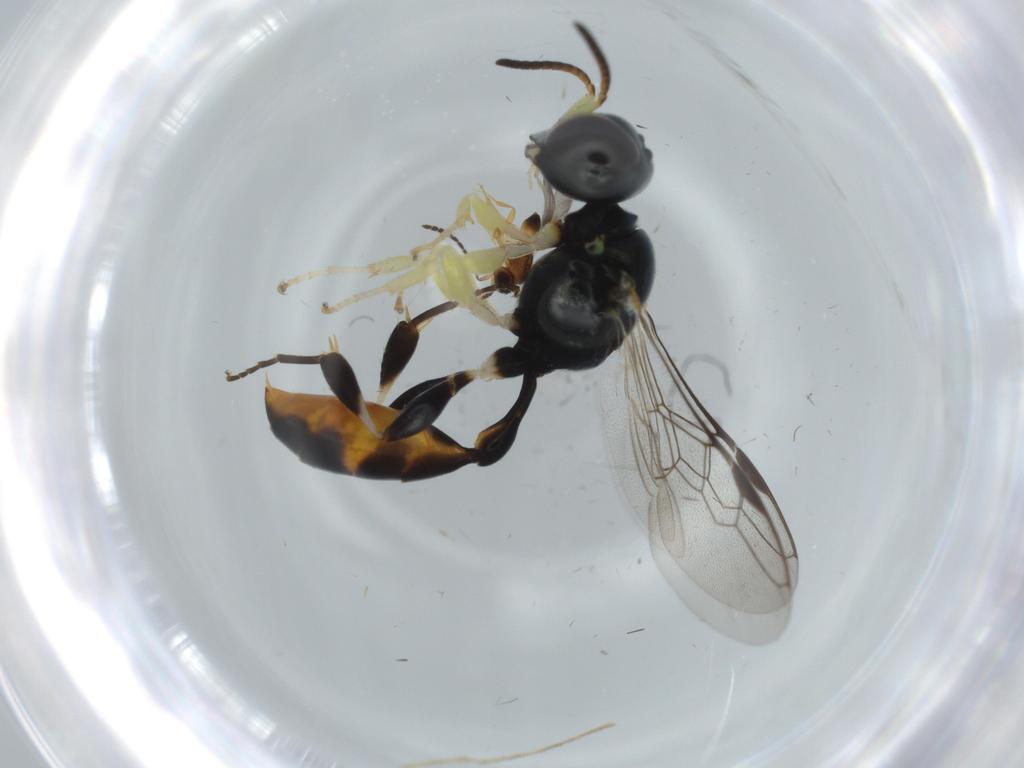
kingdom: Animalia
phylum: Arthropoda
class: Insecta
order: Hymenoptera
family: Crabronidae
